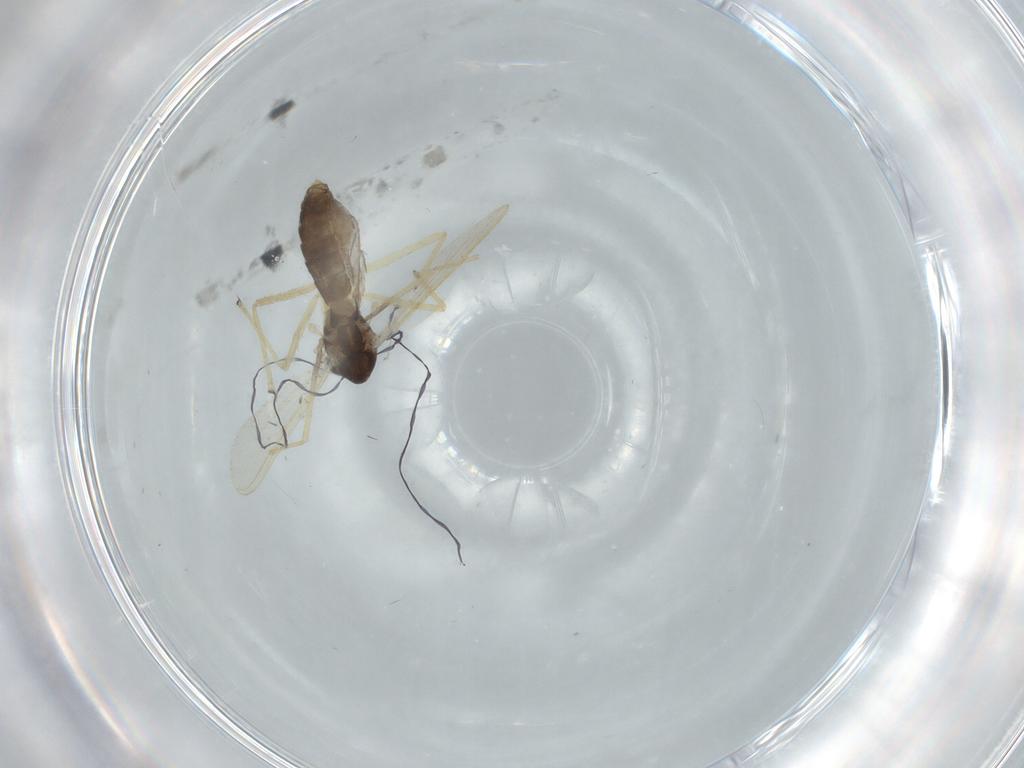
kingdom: Animalia
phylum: Arthropoda
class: Insecta
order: Diptera
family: Chironomidae
